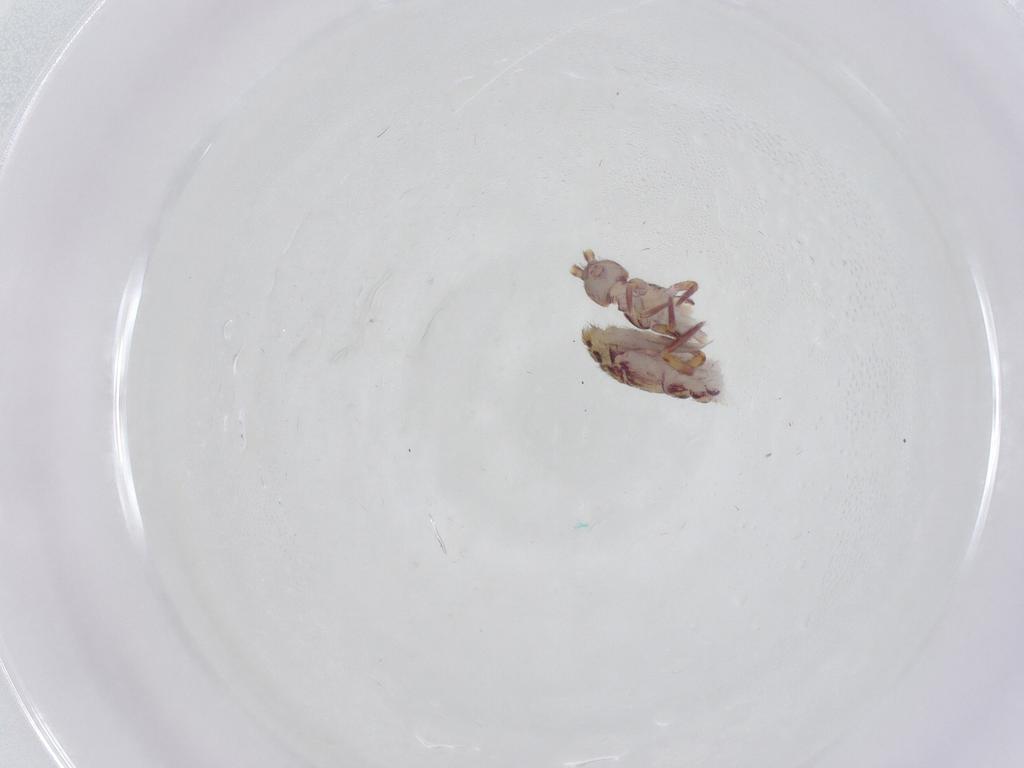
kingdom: Animalia
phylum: Arthropoda
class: Collembola
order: Entomobryomorpha
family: Isotomidae
